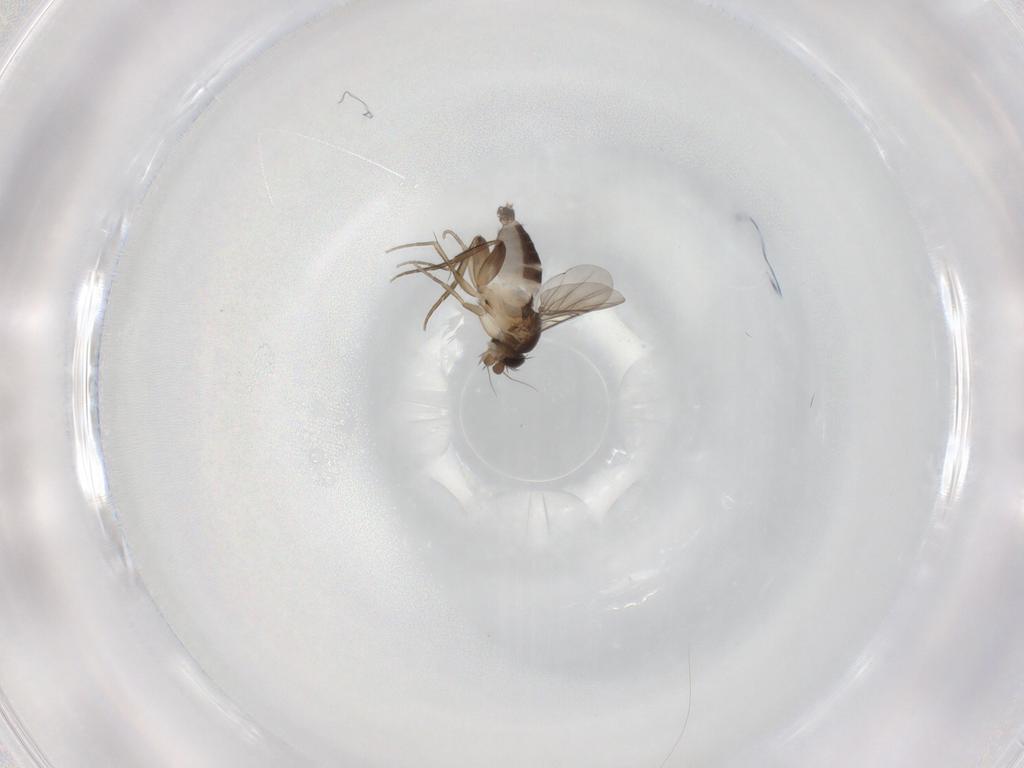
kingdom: Animalia
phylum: Arthropoda
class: Insecta
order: Diptera
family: Phoridae
